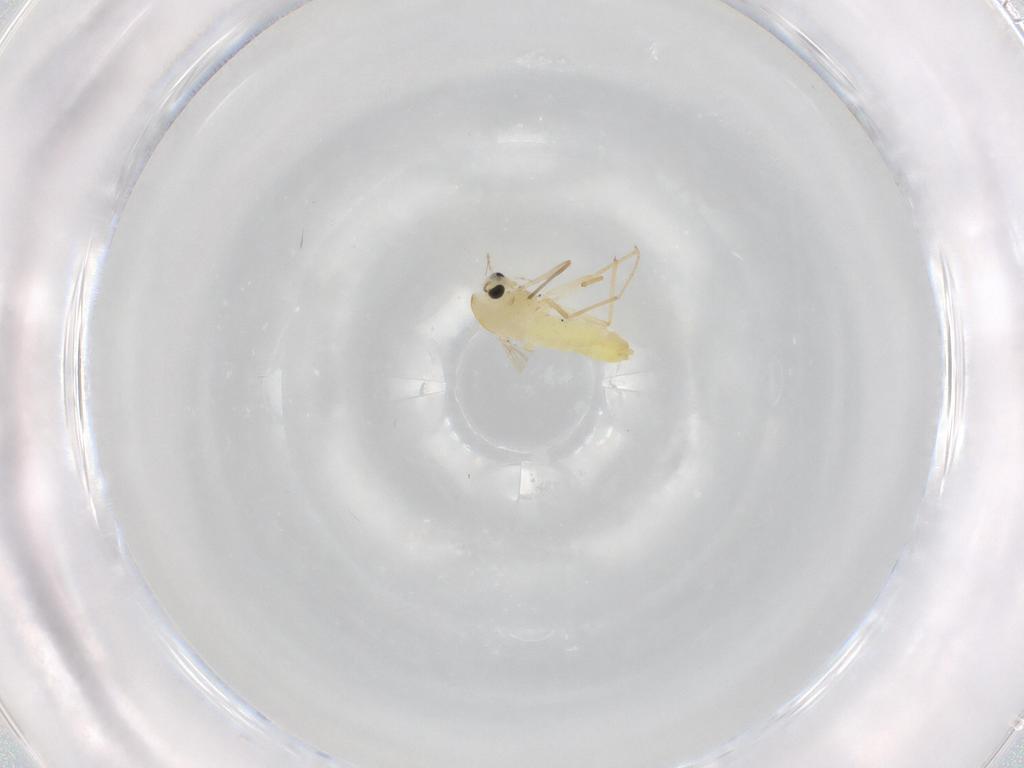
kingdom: Animalia
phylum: Arthropoda
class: Insecta
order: Diptera
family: Chironomidae
